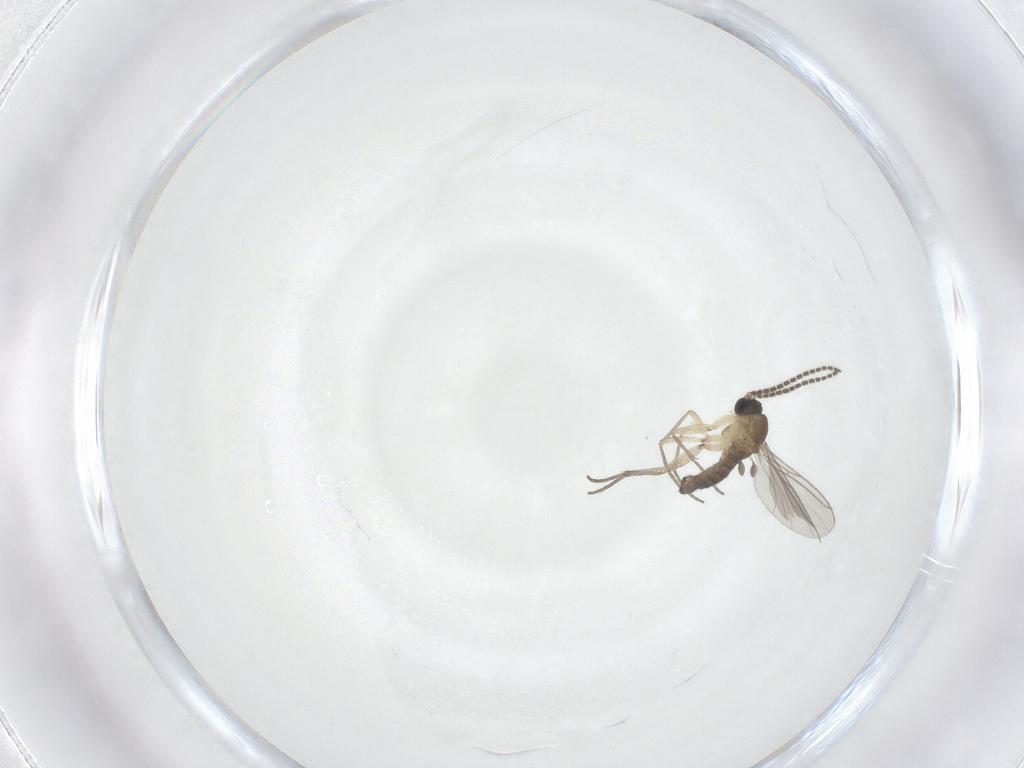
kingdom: Animalia
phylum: Arthropoda
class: Insecta
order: Diptera
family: Sciaridae
